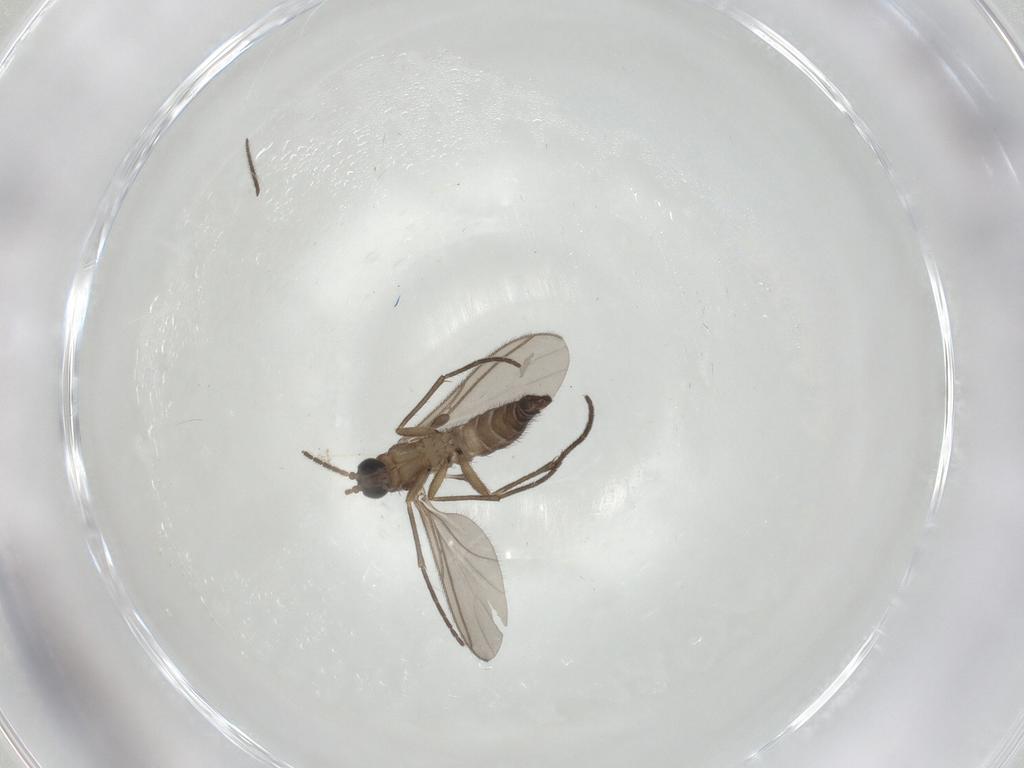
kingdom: Animalia
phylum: Arthropoda
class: Insecta
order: Diptera
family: Sciaridae
